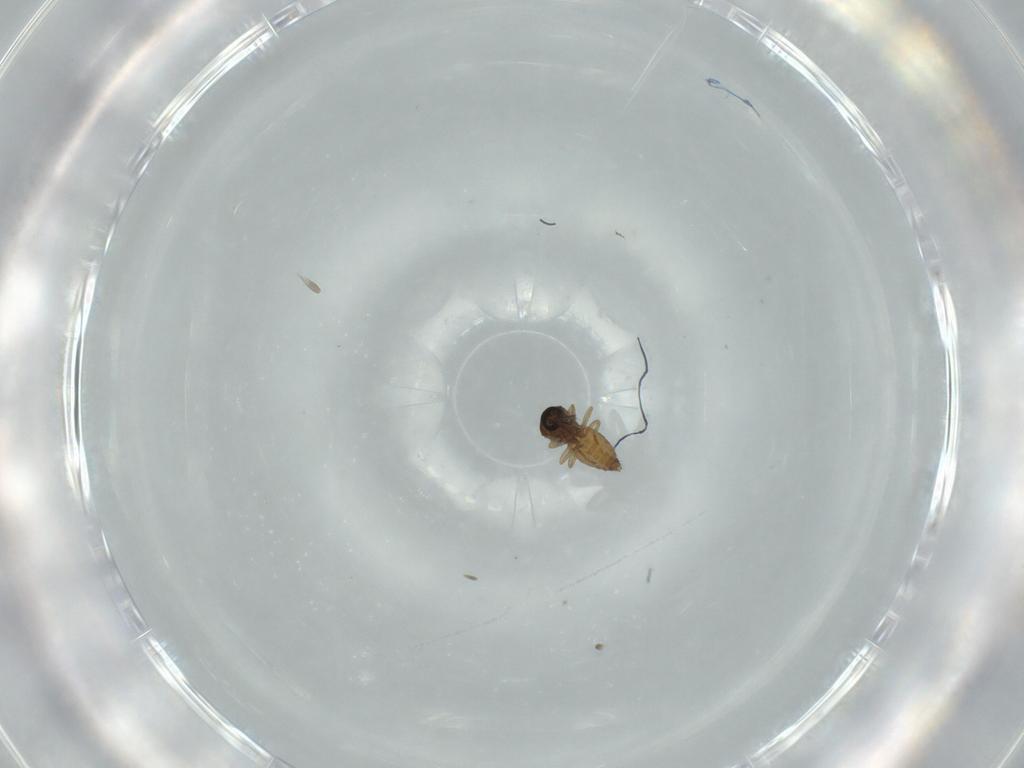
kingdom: Animalia
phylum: Arthropoda
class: Insecta
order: Diptera
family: Ceratopogonidae
